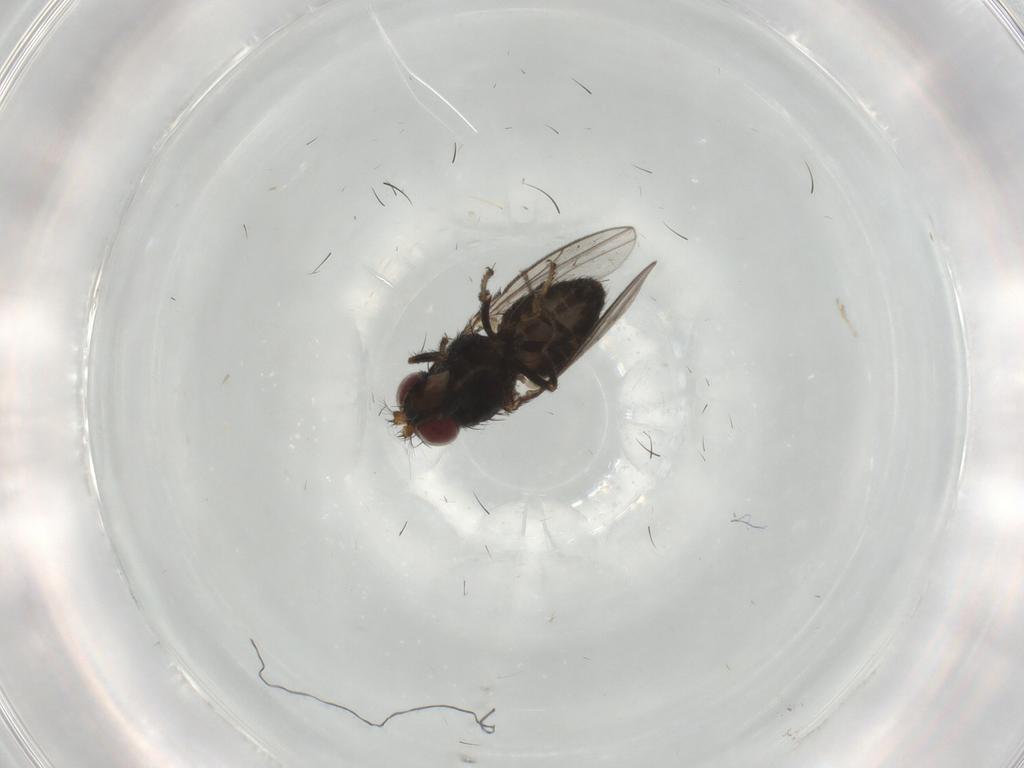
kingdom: Animalia
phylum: Arthropoda
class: Insecta
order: Diptera
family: Ephydridae
